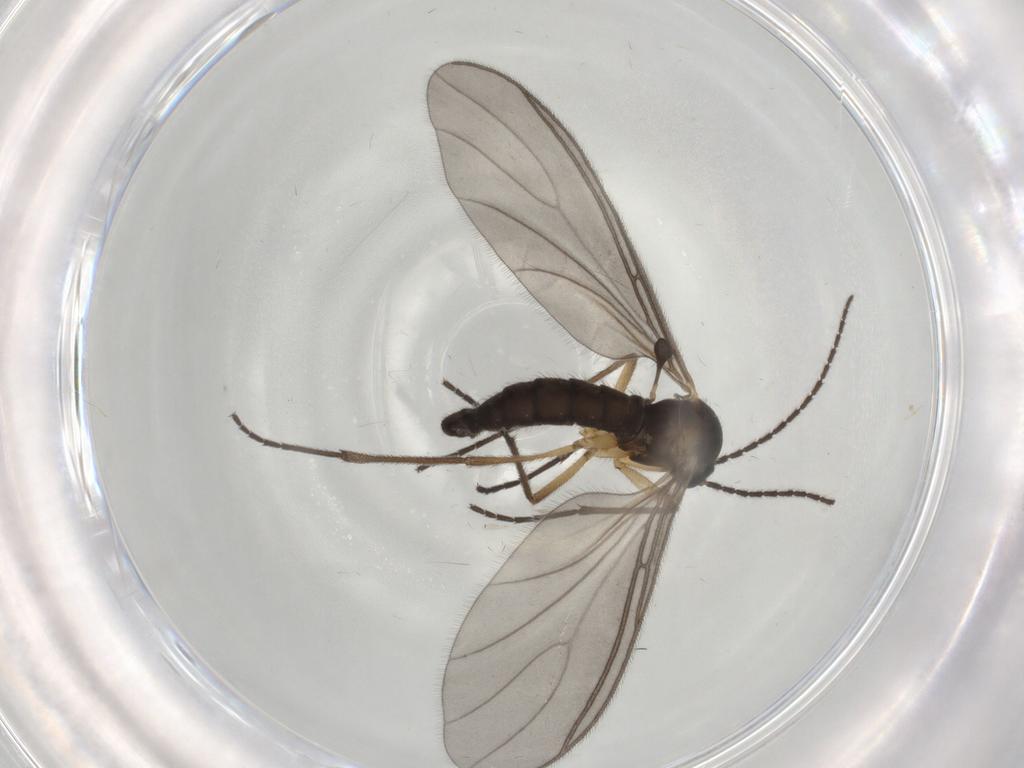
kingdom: Animalia
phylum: Arthropoda
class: Insecta
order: Diptera
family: Sciaridae
